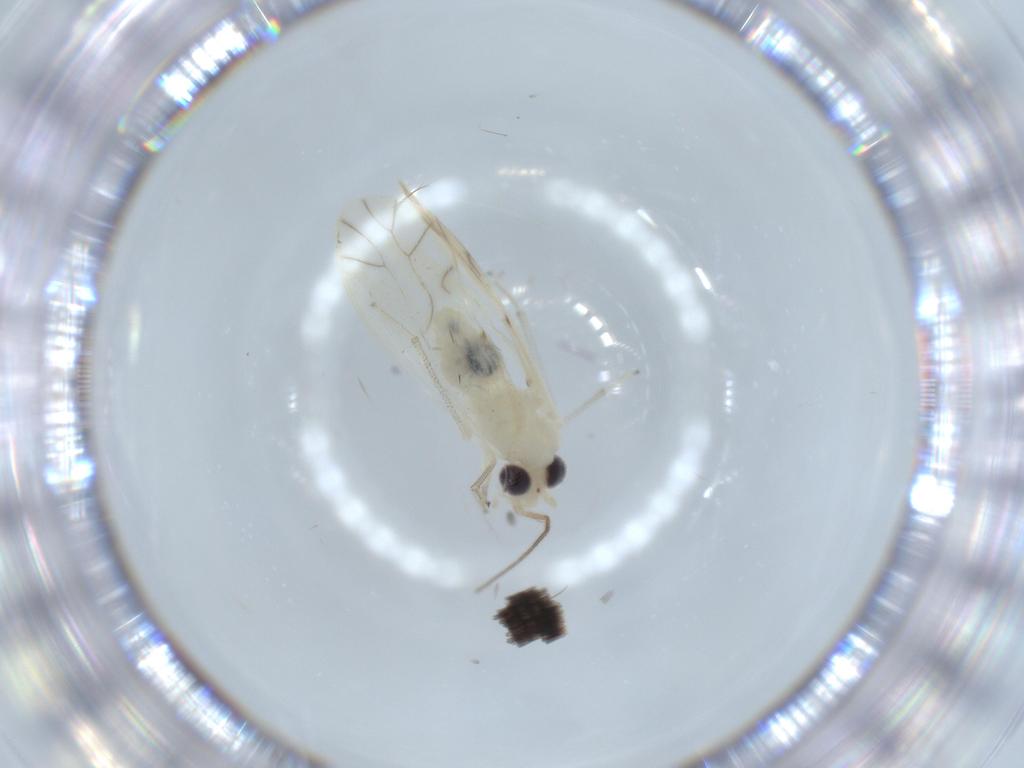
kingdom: Animalia
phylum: Arthropoda
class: Insecta
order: Psocodea
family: Caeciliusidae
